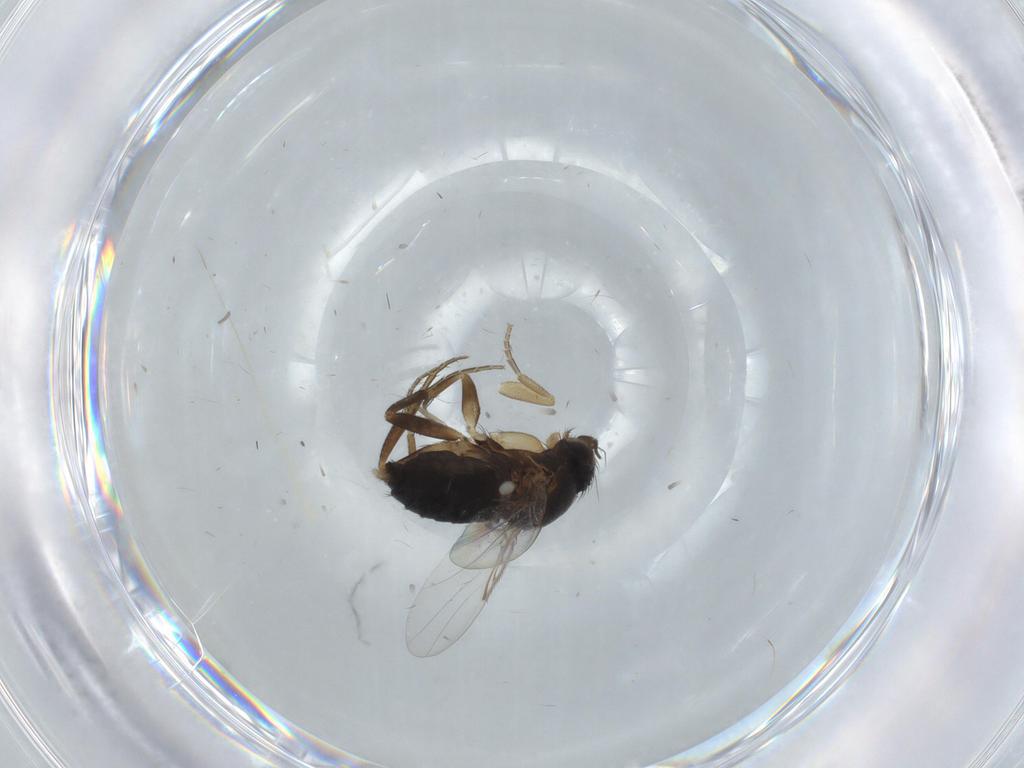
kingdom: Animalia
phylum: Arthropoda
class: Insecta
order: Diptera
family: Phoridae
